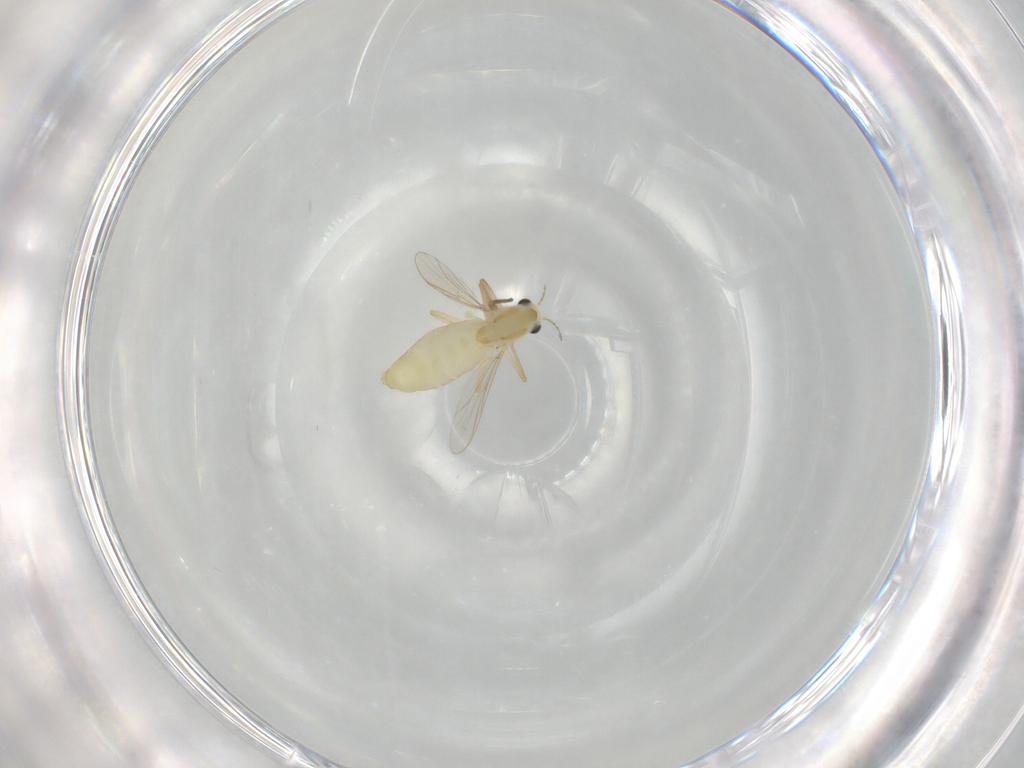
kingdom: Animalia
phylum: Arthropoda
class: Insecta
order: Diptera
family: Chironomidae
